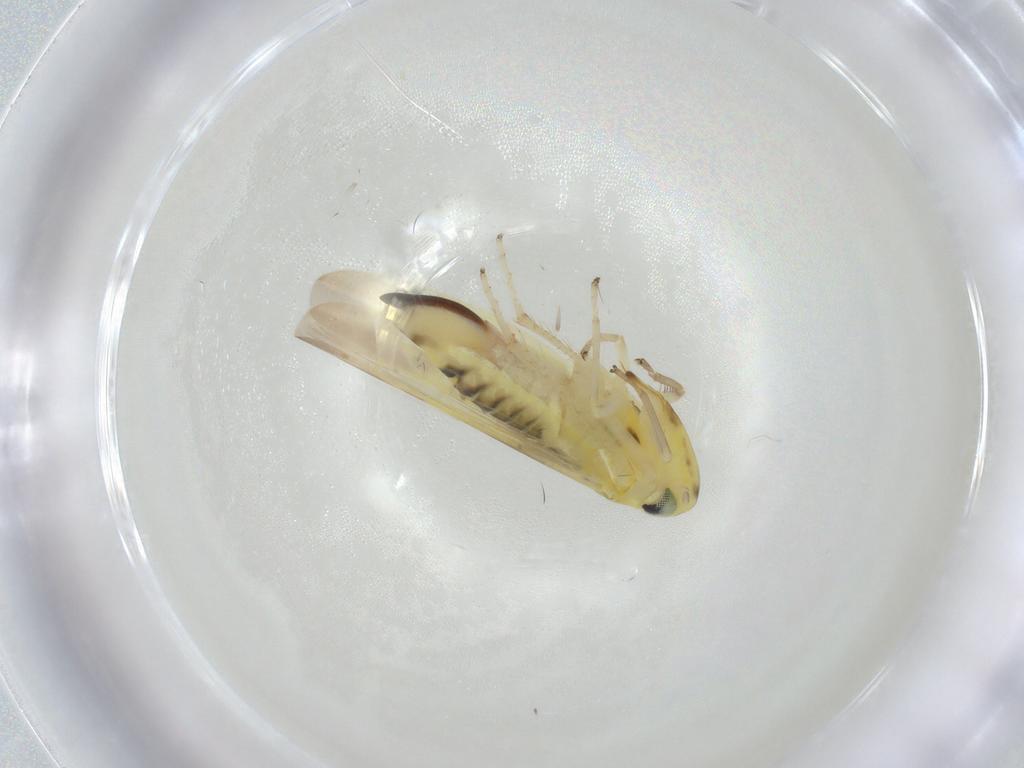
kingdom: Animalia
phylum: Arthropoda
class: Insecta
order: Hemiptera
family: Cicadellidae
